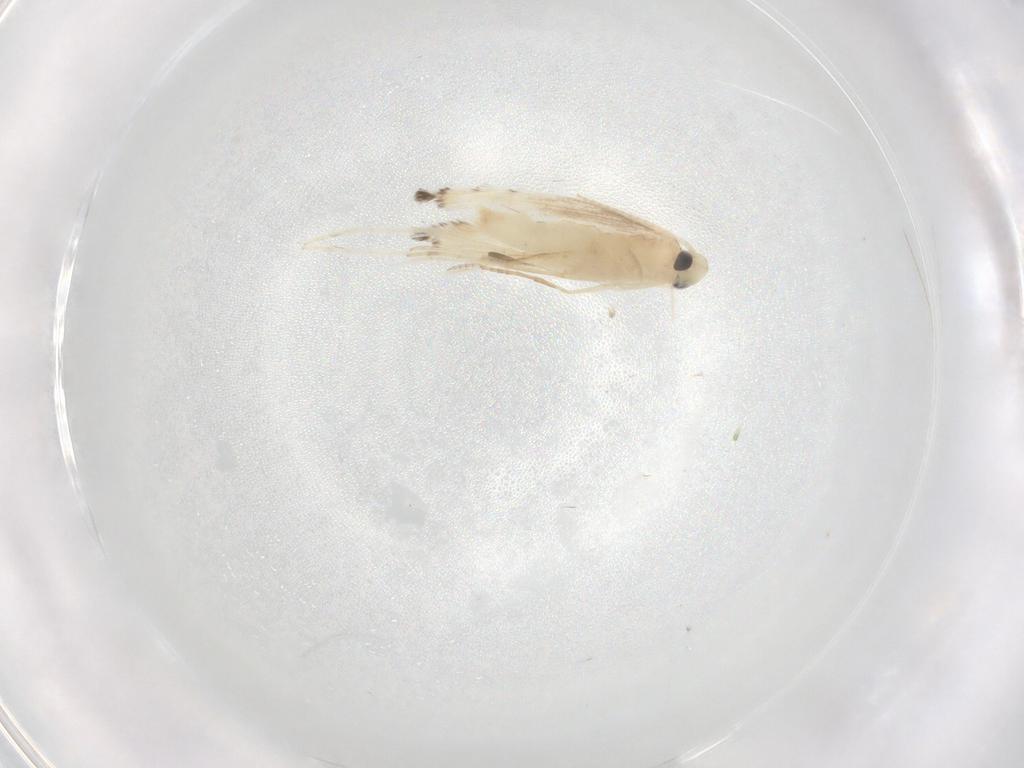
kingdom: Animalia
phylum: Arthropoda
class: Insecta
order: Lepidoptera
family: Gracillariidae
